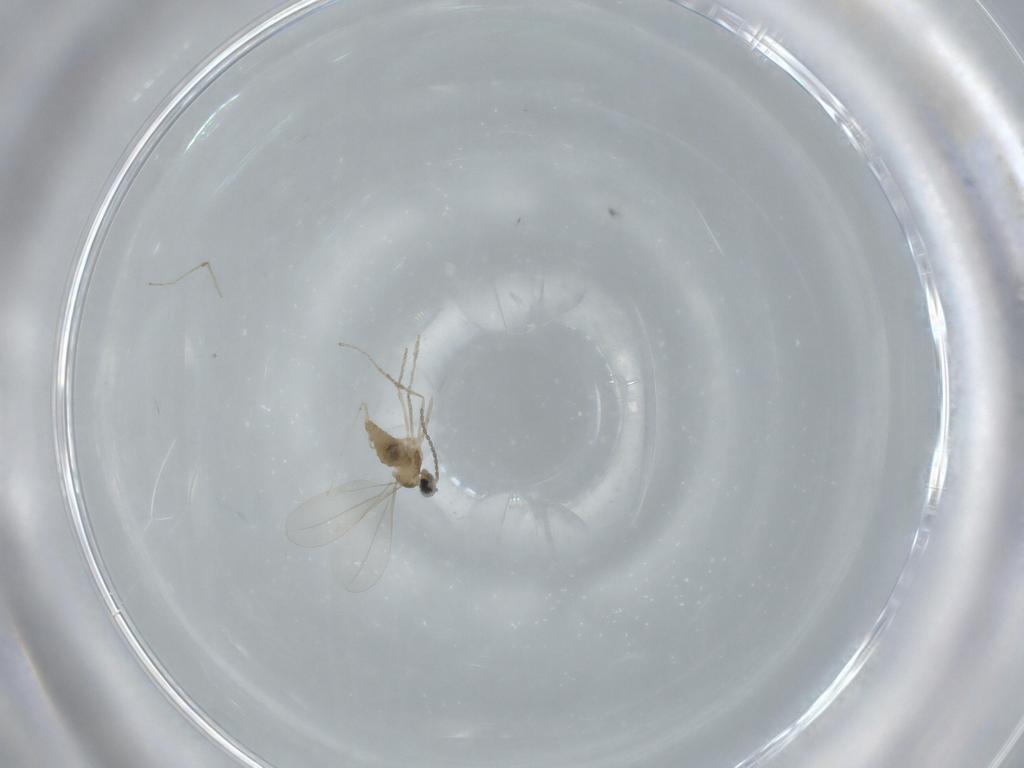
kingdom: Animalia
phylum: Arthropoda
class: Insecta
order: Diptera
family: Cecidomyiidae
